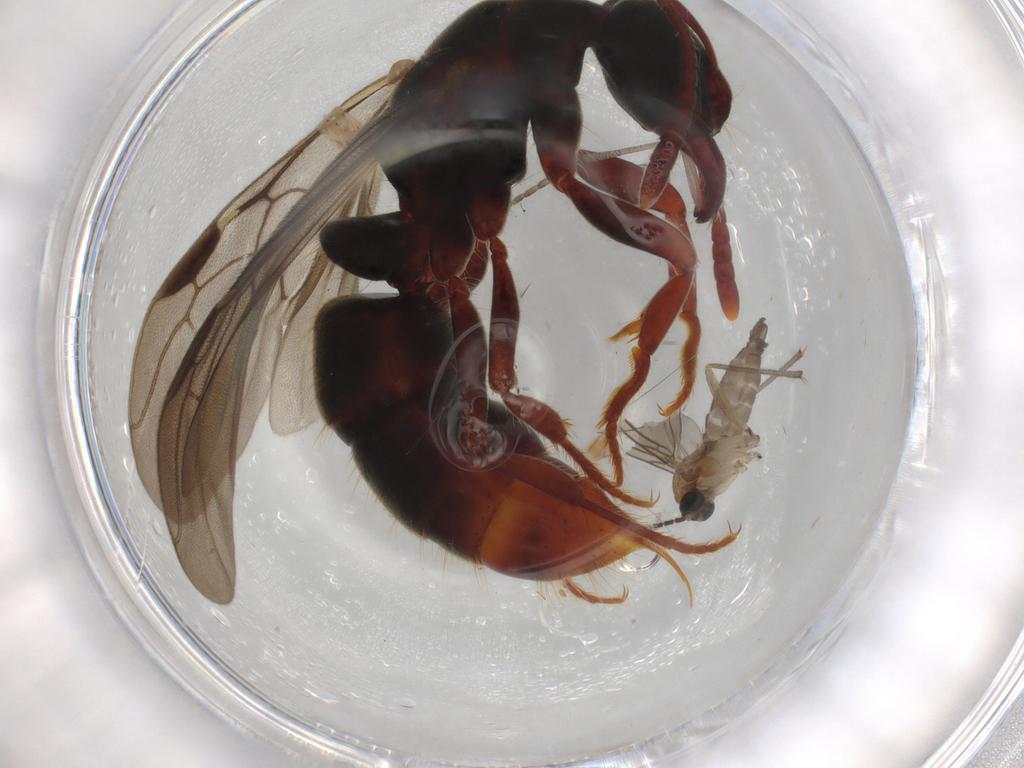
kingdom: Animalia
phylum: Arthropoda
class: Insecta
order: Diptera
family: Sciaridae
